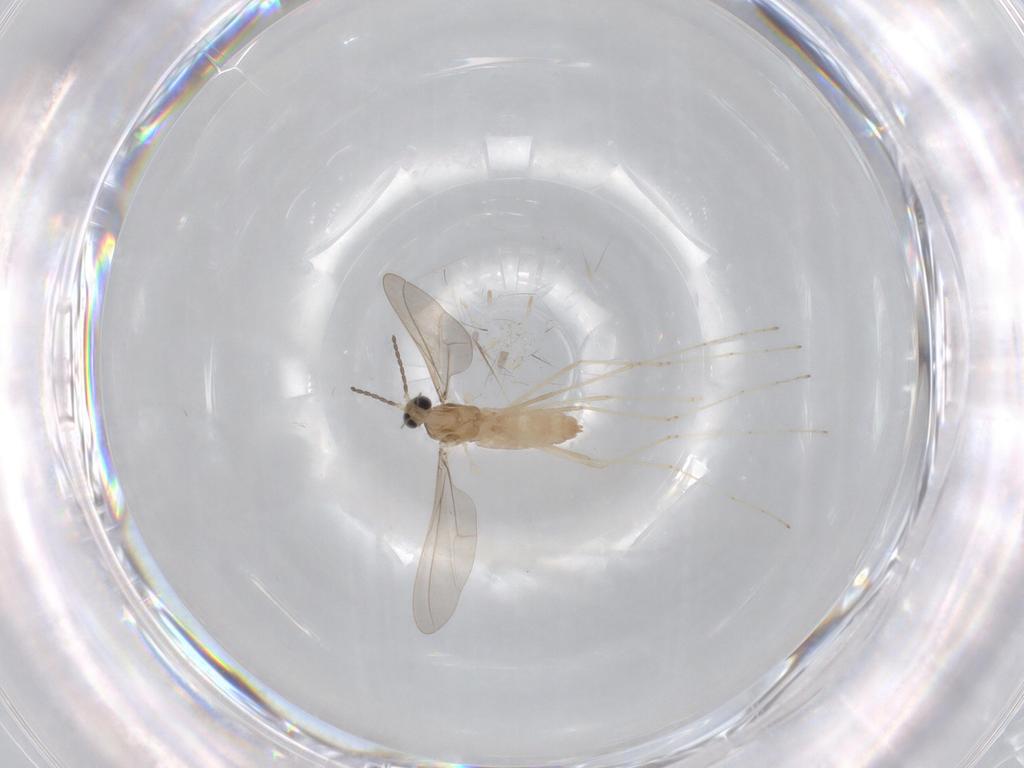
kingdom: Animalia
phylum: Arthropoda
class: Insecta
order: Diptera
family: Cecidomyiidae
